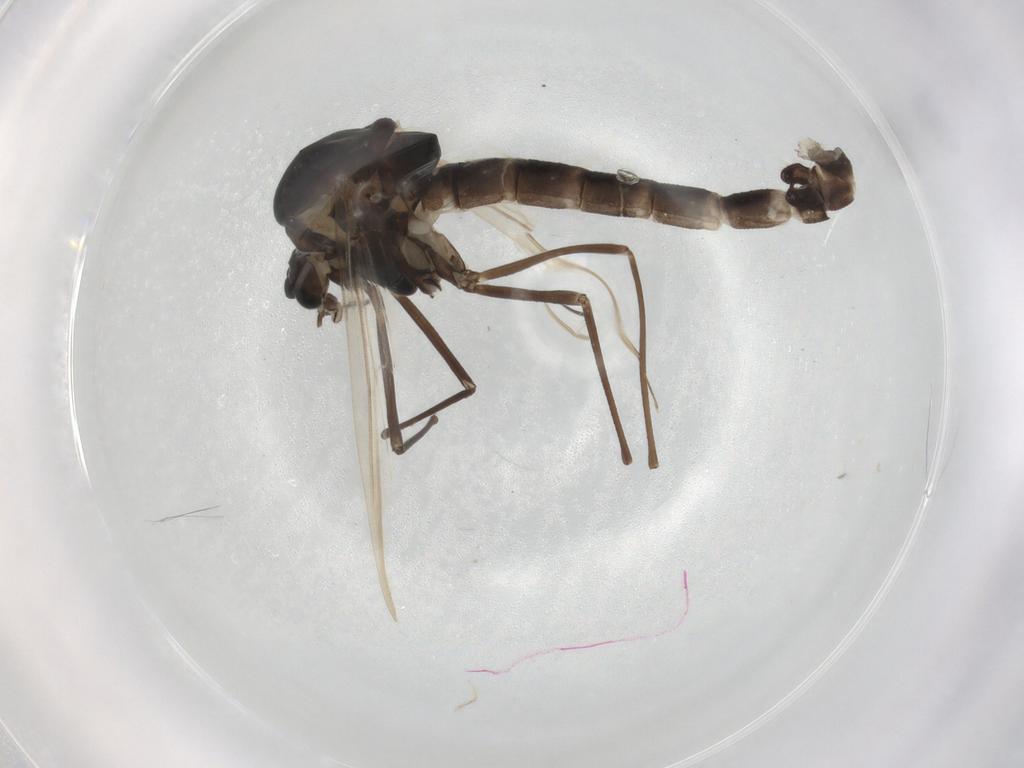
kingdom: Animalia
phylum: Arthropoda
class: Insecta
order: Diptera
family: Chironomidae
